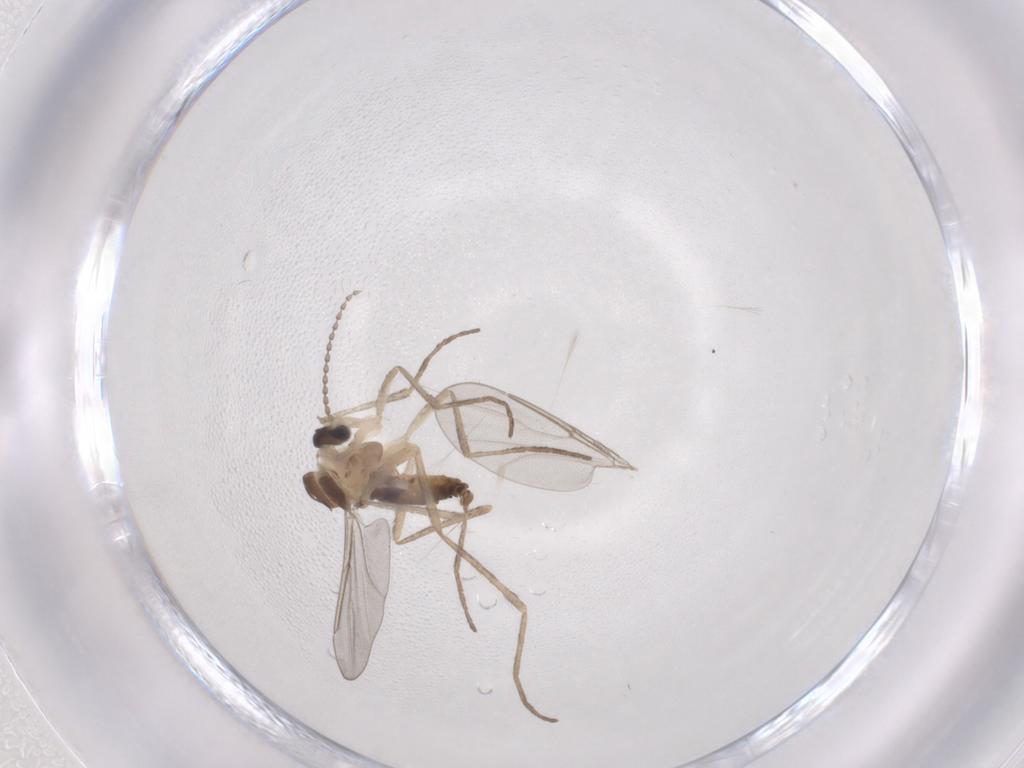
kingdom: Animalia
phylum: Arthropoda
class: Insecta
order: Diptera
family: Cecidomyiidae
